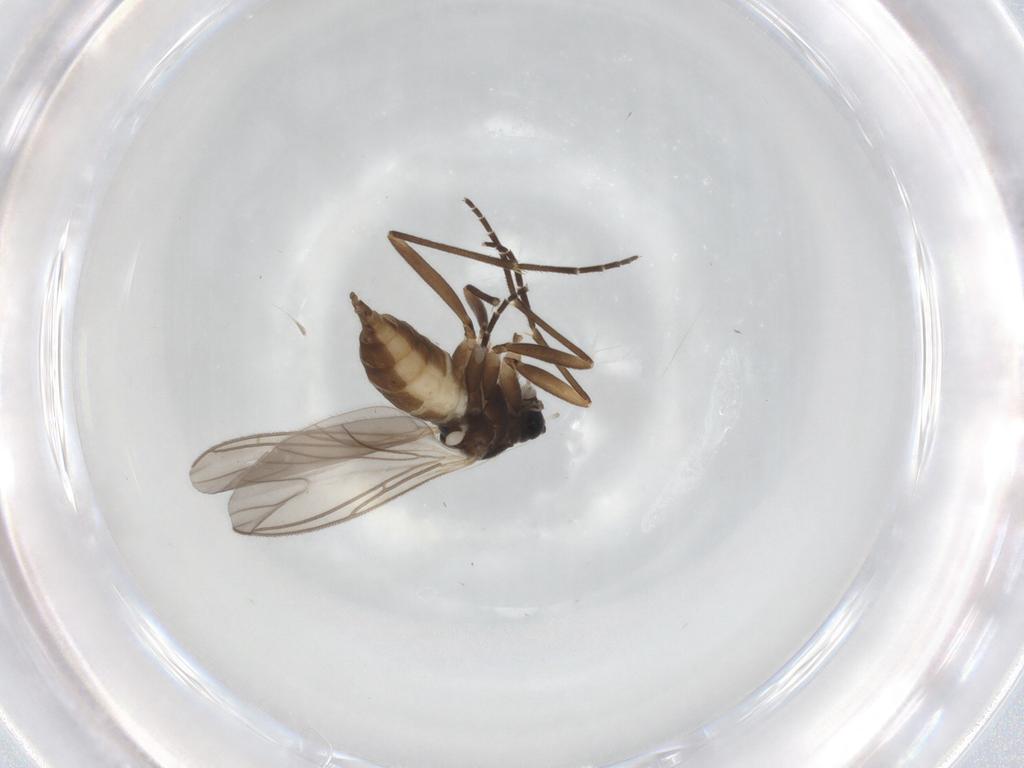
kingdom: Animalia
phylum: Arthropoda
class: Insecta
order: Diptera
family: Sciaridae
